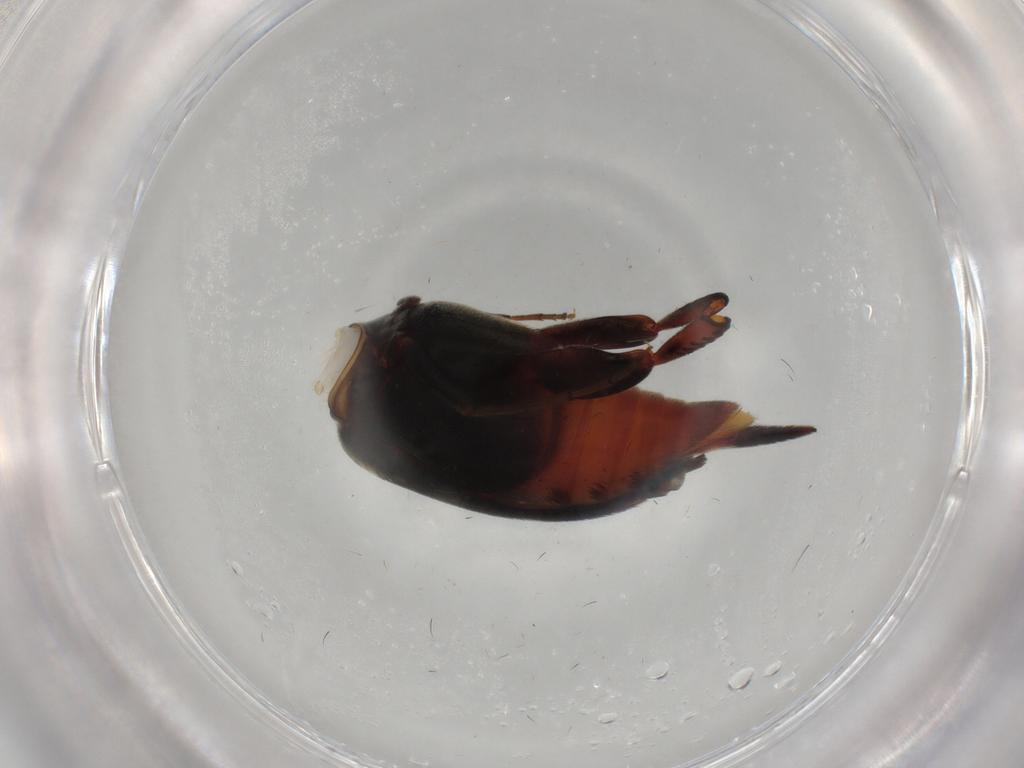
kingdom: Animalia
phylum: Arthropoda
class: Insecta
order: Coleoptera
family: Mordellidae
